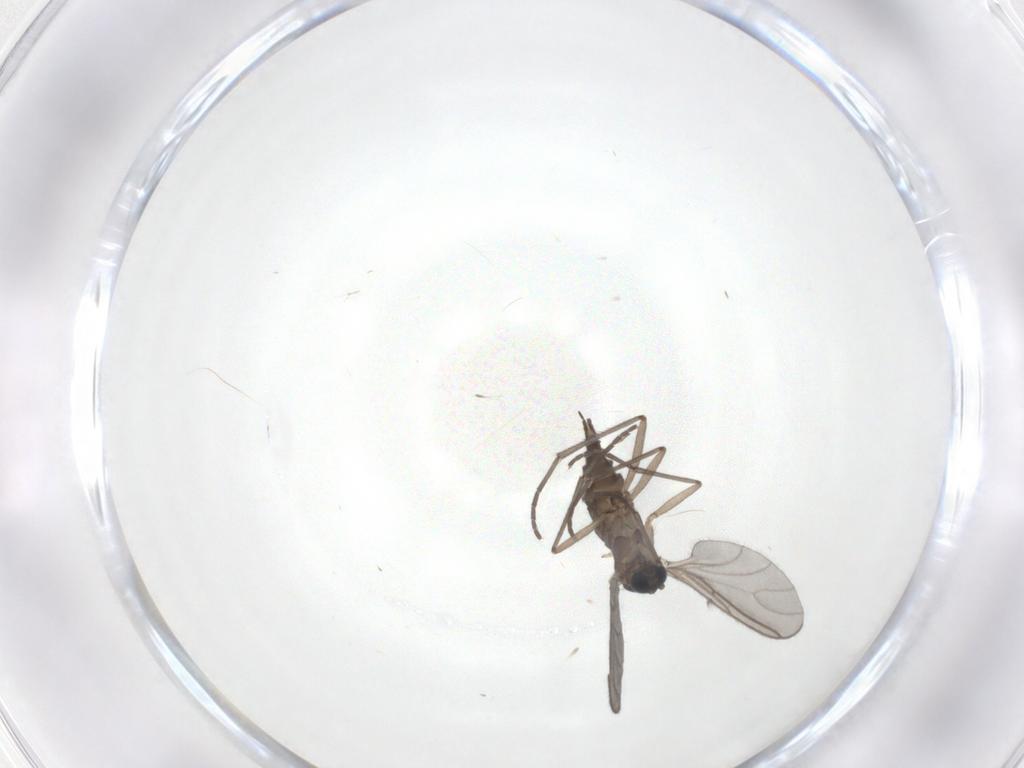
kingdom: Animalia
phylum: Arthropoda
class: Insecta
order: Diptera
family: Sciaridae
